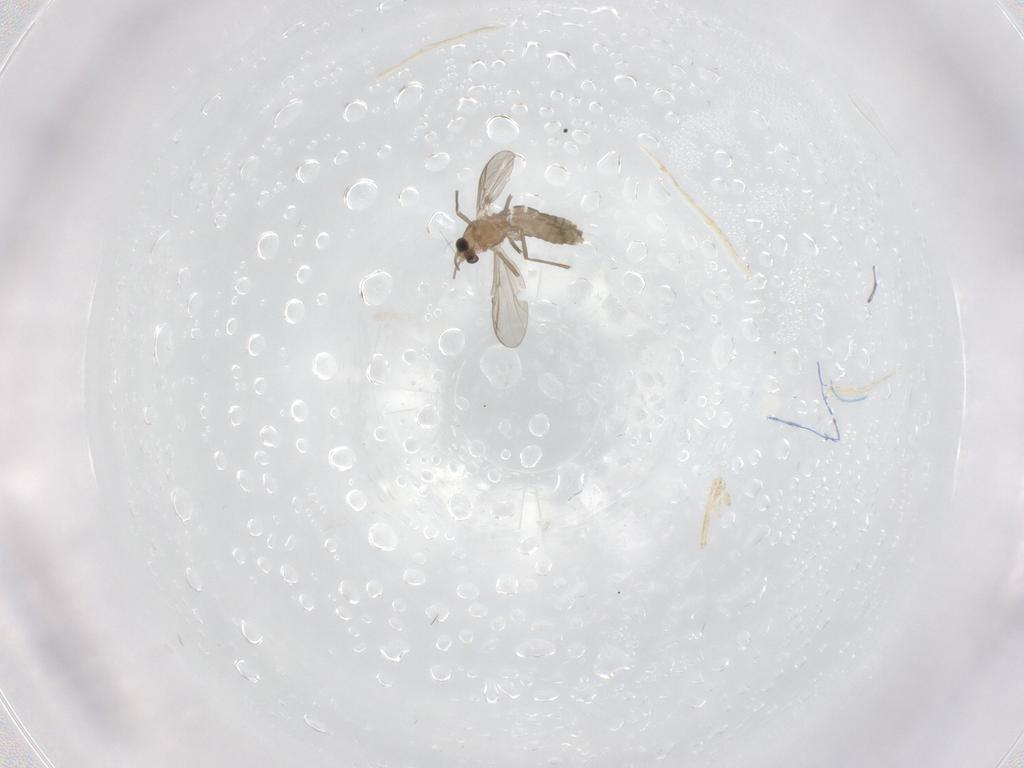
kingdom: Animalia
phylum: Arthropoda
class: Insecta
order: Diptera
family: Chironomidae
